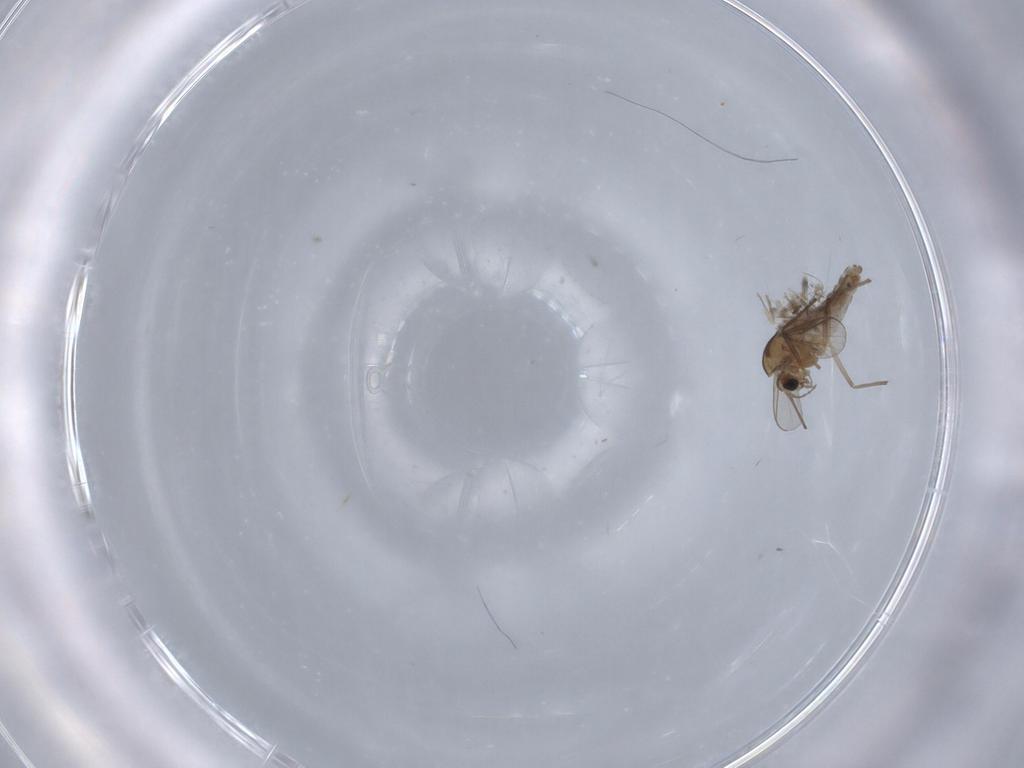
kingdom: Animalia
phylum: Arthropoda
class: Insecta
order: Diptera
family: Chironomidae
